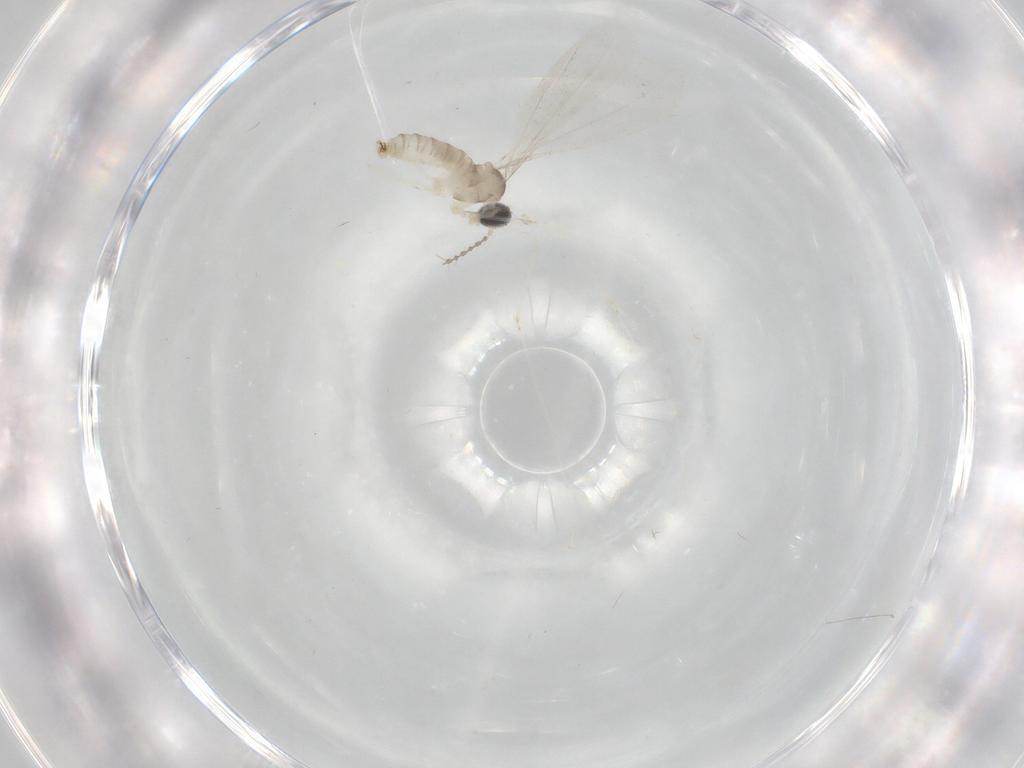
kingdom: Animalia
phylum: Arthropoda
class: Insecta
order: Diptera
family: Cecidomyiidae
